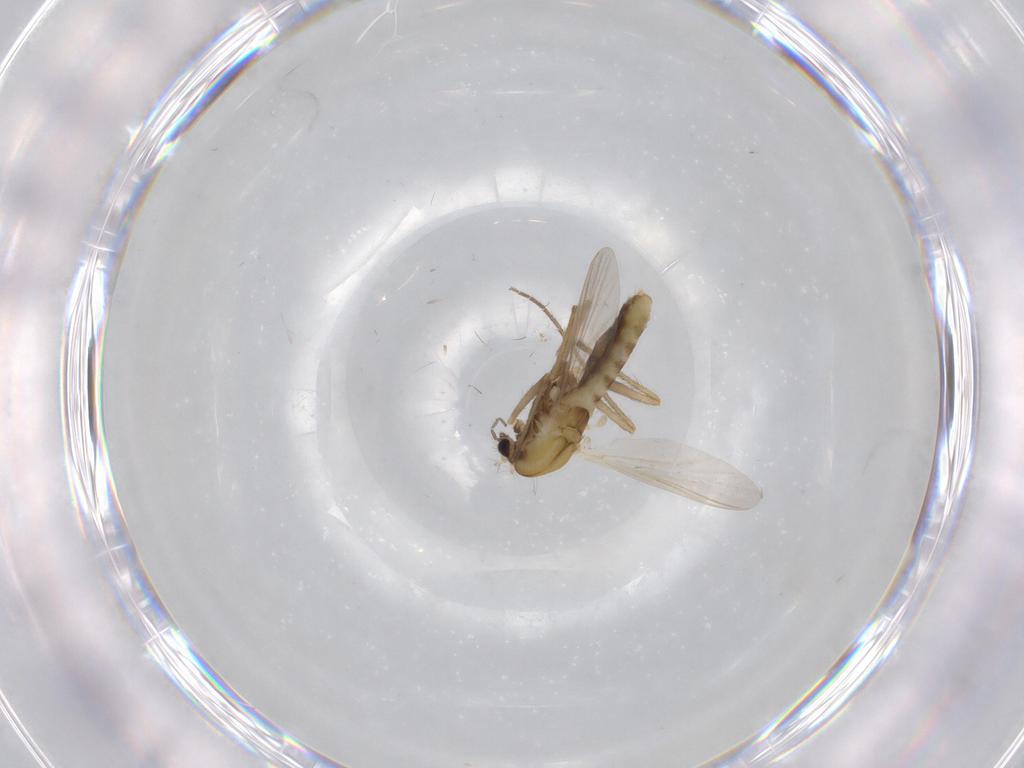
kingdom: Animalia
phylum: Arthropoda
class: Insecta
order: Diptera
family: Chironomidae
